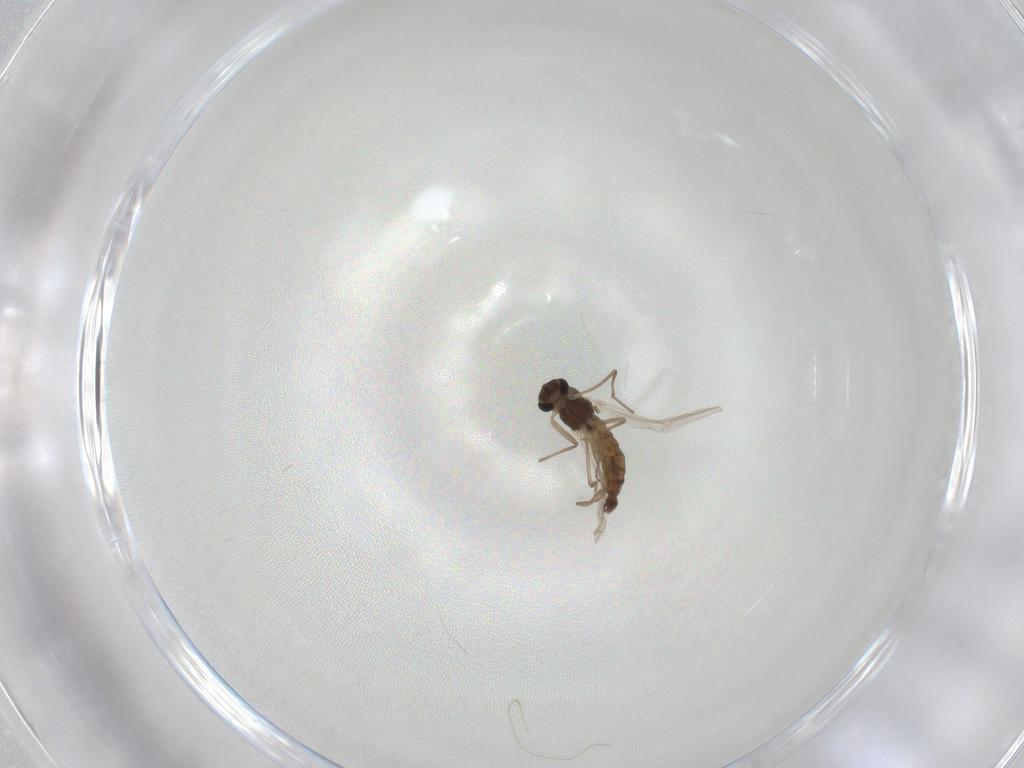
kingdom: Animalia
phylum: Arthropoda
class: Insecta
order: Diptera
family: Chironomidae
